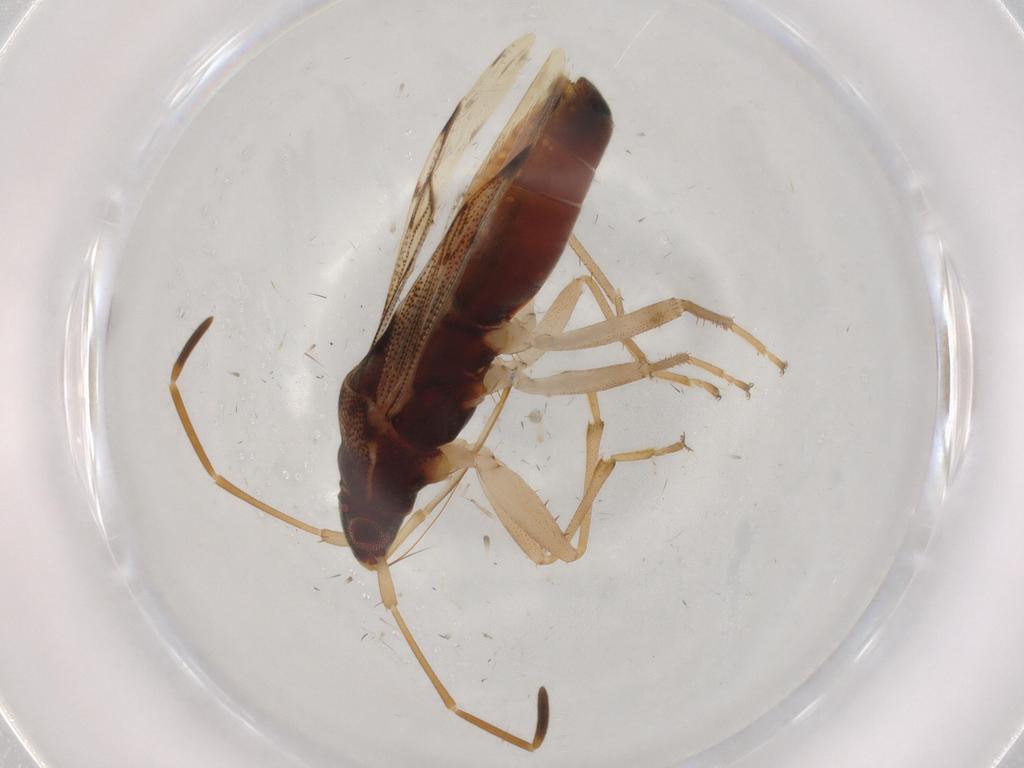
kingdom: Animalia
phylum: Arthropoda
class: Insecta
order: Hemiptera
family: Rhyparochromidae
